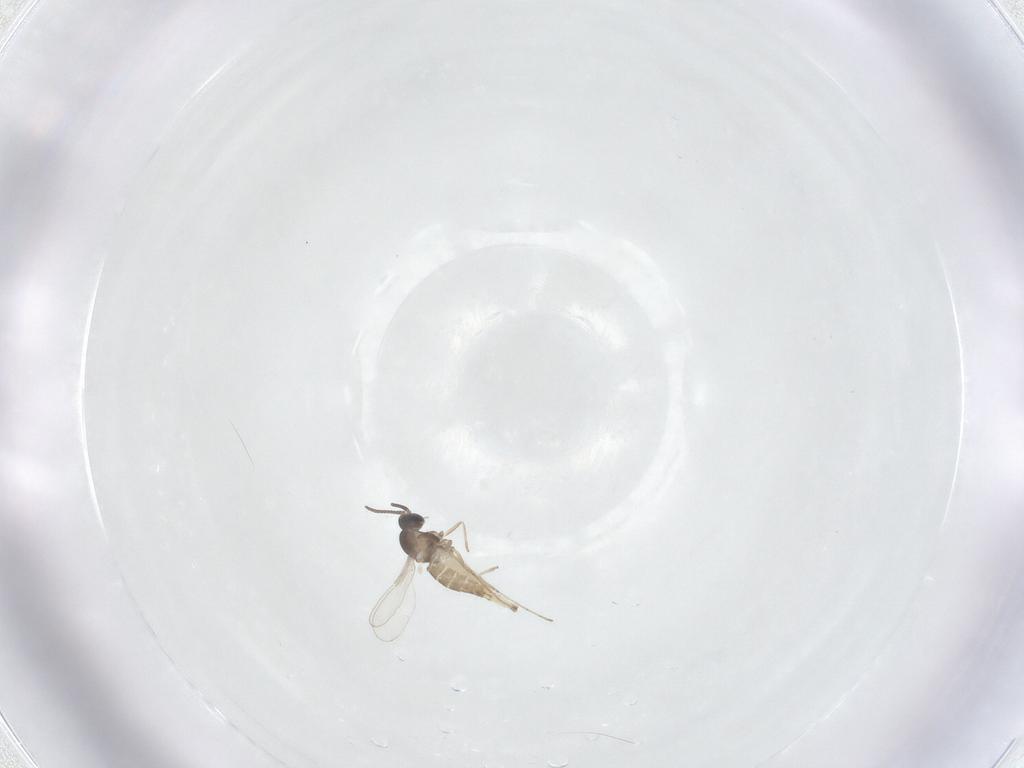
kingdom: Animalia
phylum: Arthropoda
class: Insecta
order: Diptera
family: Cecidomyiidae
